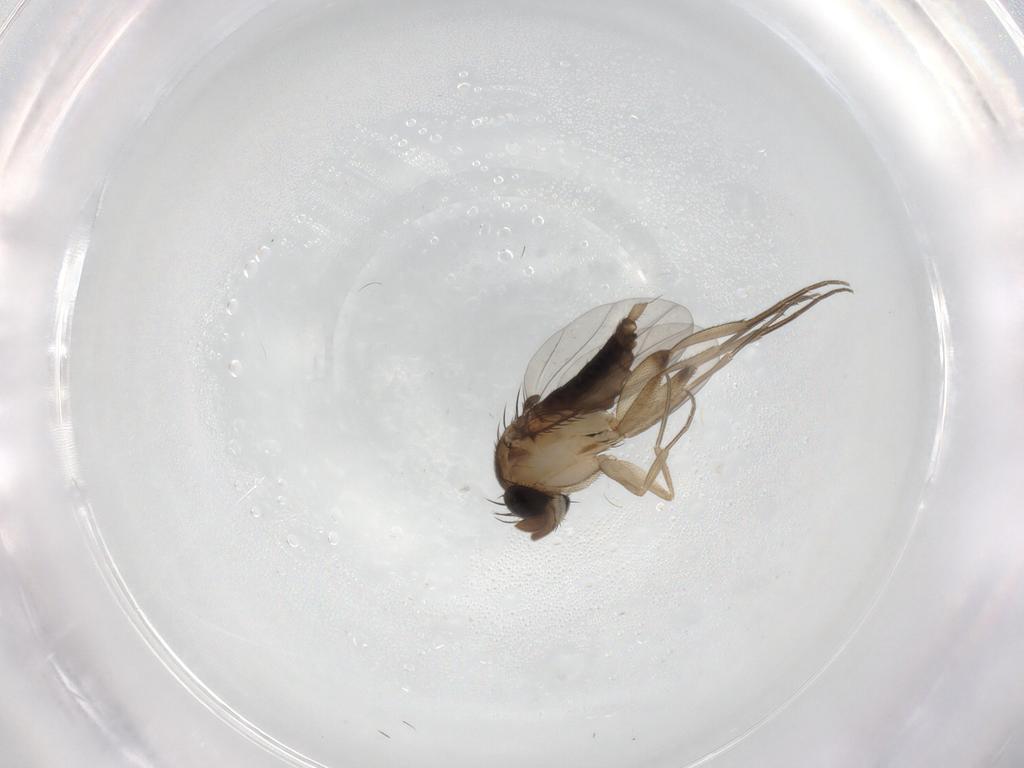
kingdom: Animalia
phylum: Arthropoda
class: Insecta
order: Diptera
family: Phoridae
